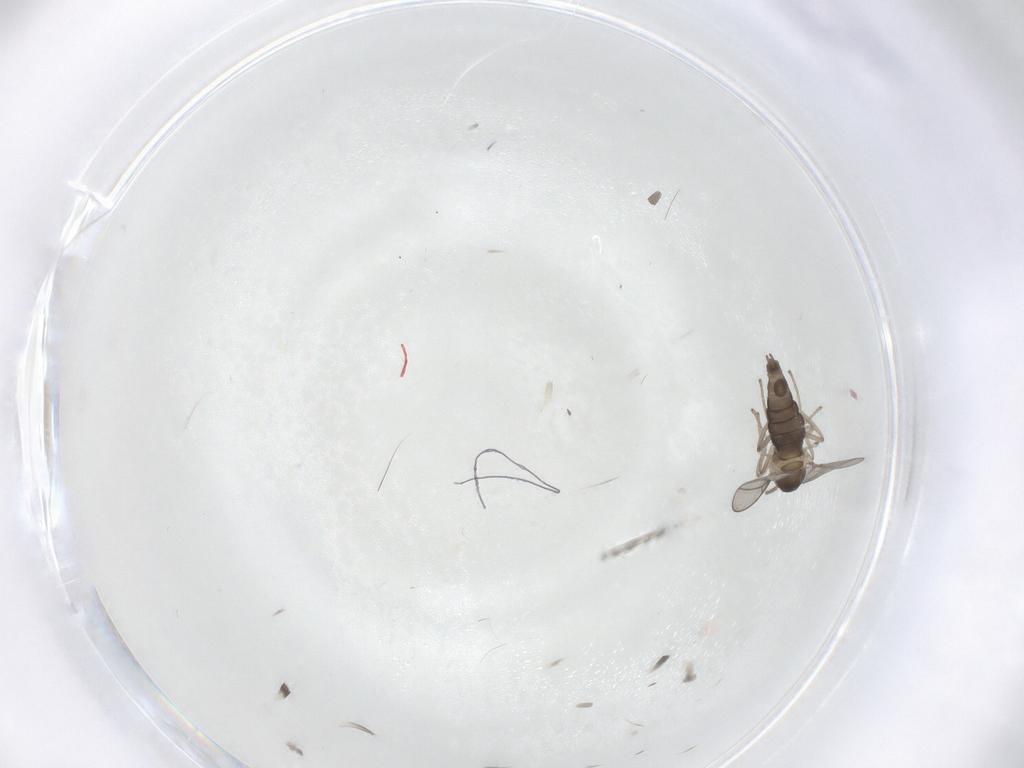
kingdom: Animalia
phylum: Arthropoda
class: Insecta
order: Diptera
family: Cecidomyiidae
